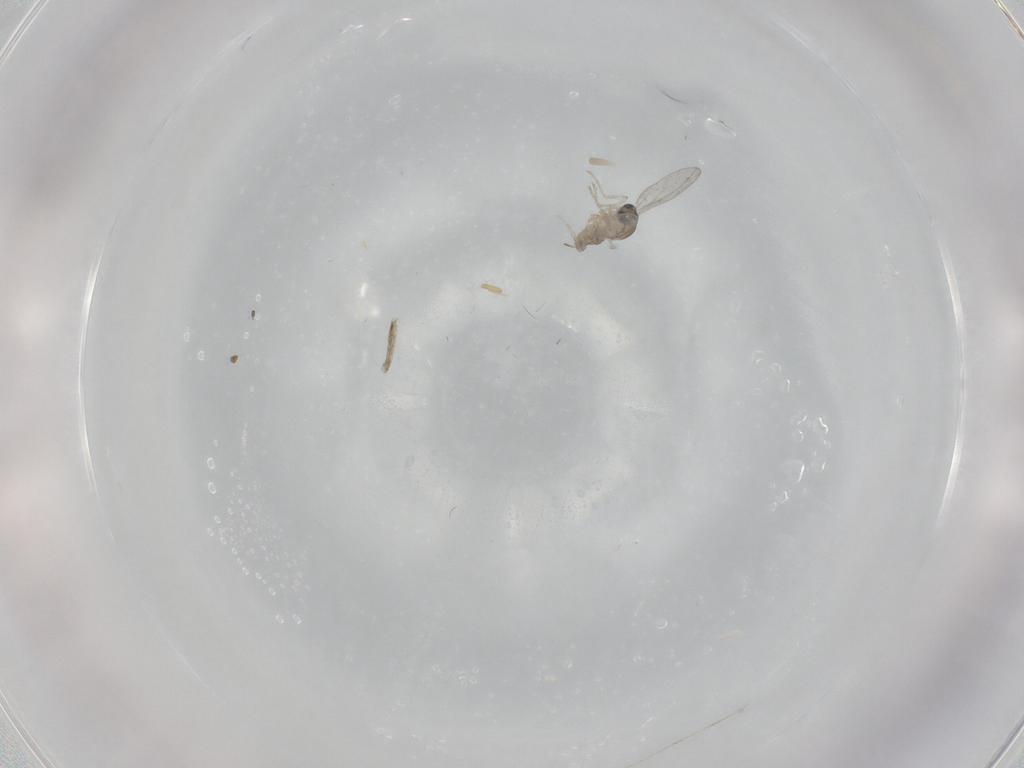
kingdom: Animalia
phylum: Arthropoda
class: Insecta
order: Diptera
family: Cecidomyiidae
